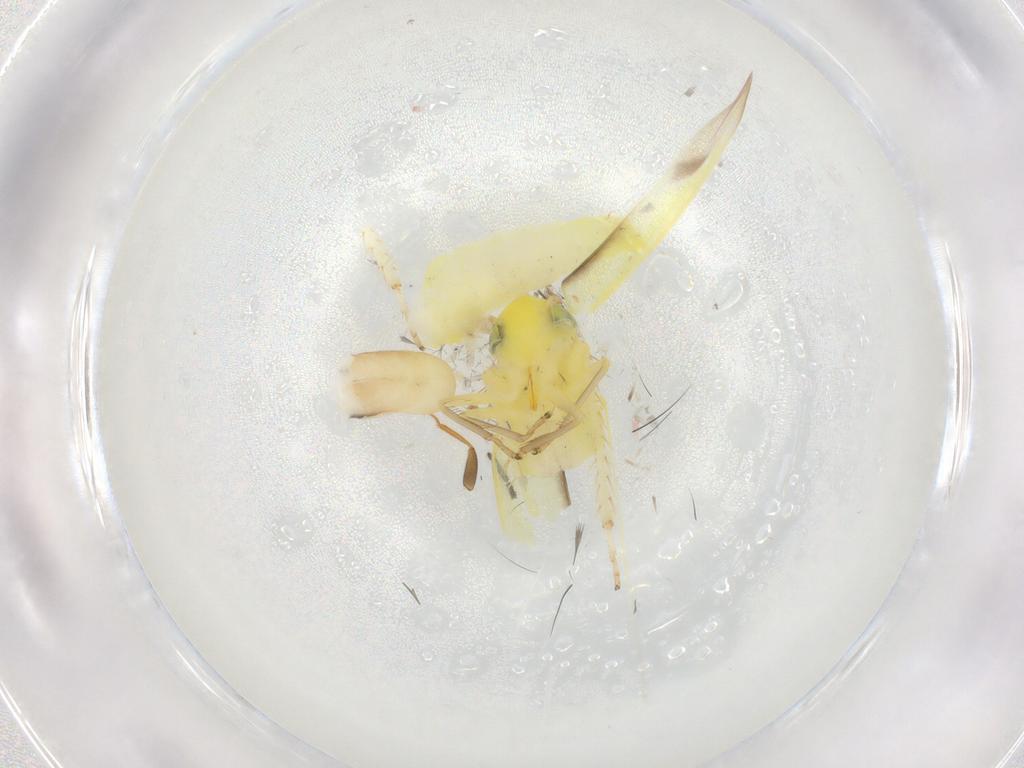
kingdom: Animalia
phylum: Arthropoda
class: Insecta
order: Hemiptera
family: Cicadellidae
